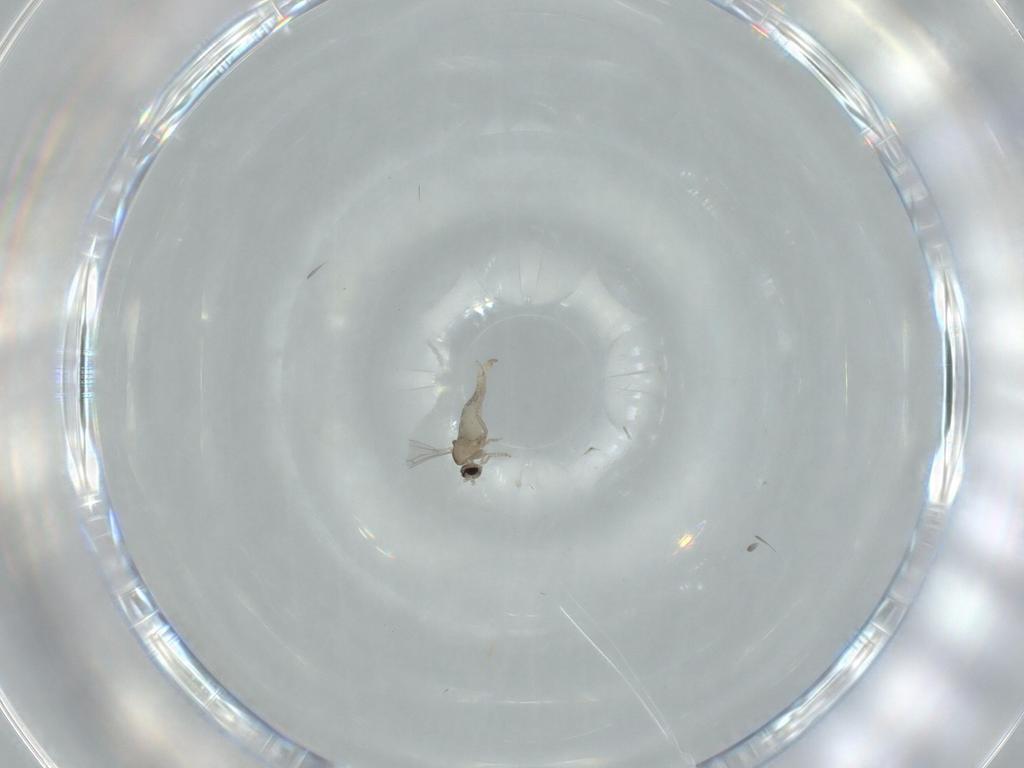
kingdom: Animalia
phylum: Arthropoda
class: Insecta
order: Diptera
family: Cecidomyiidae
